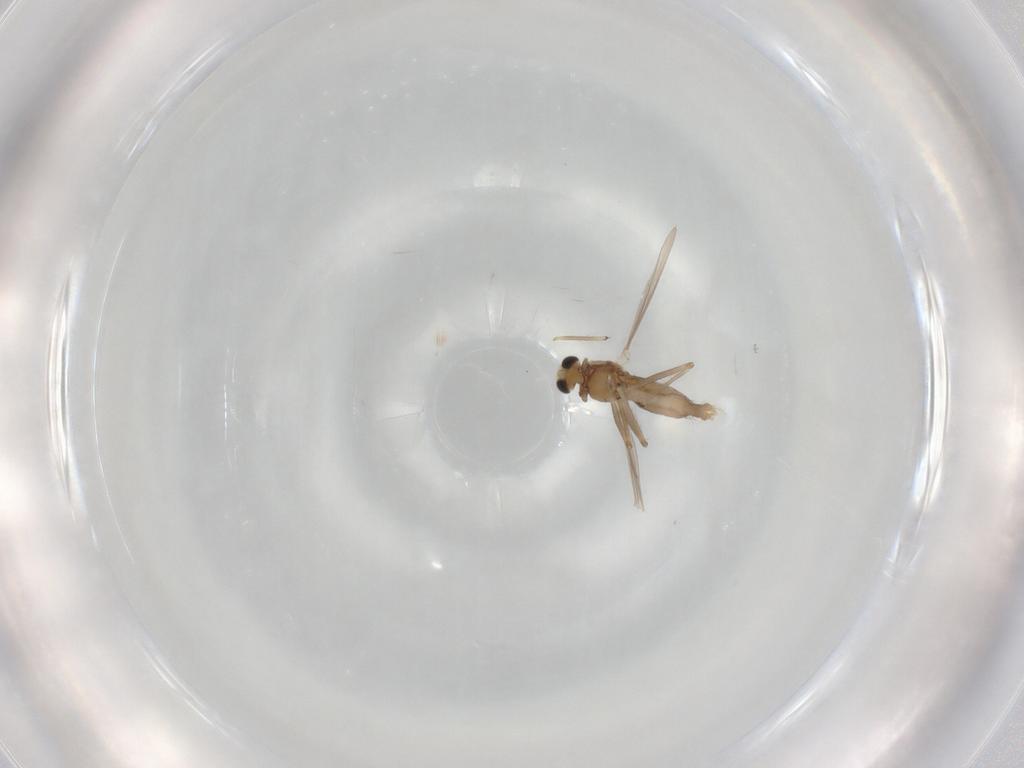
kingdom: Animalia
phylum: Arthropoda
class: Insecta
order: Diptera
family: Chironomidae
